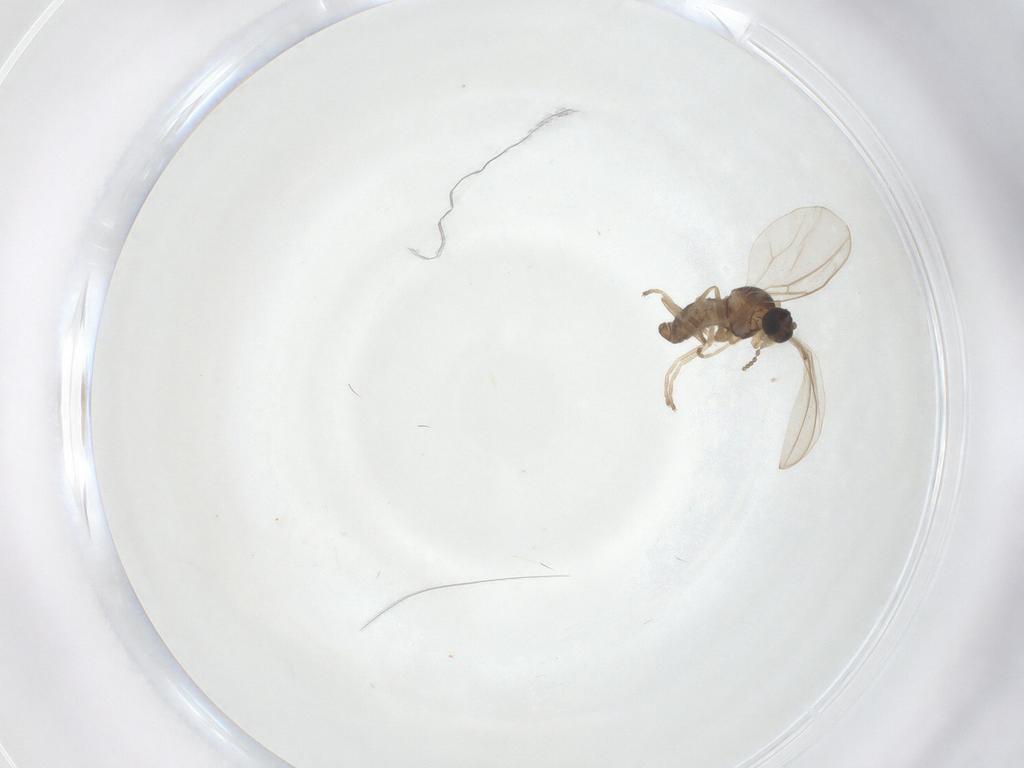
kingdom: Animalia
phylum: Arthropoda
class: Insecta
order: Diptera
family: Cecidomyiidae
